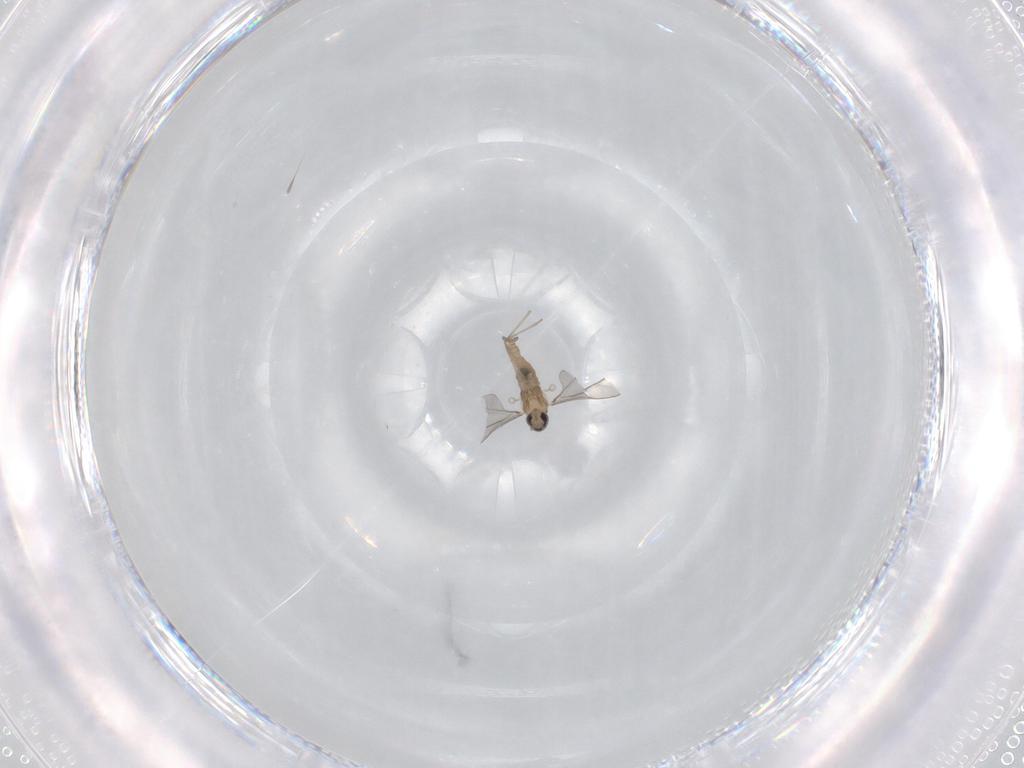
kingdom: Animalia
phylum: Arthropoda
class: Insecta
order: Diptera
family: Cecidomyiidae
